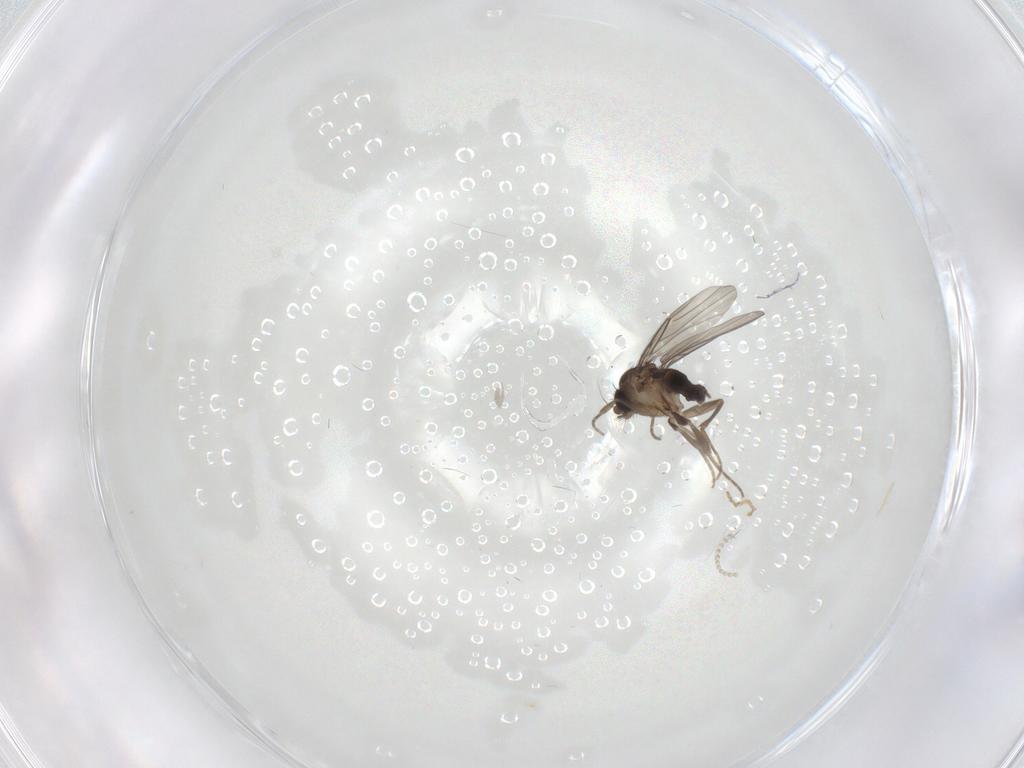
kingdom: Animalia
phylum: Arthropoda
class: Insecta
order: Diptera
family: Phoridae
